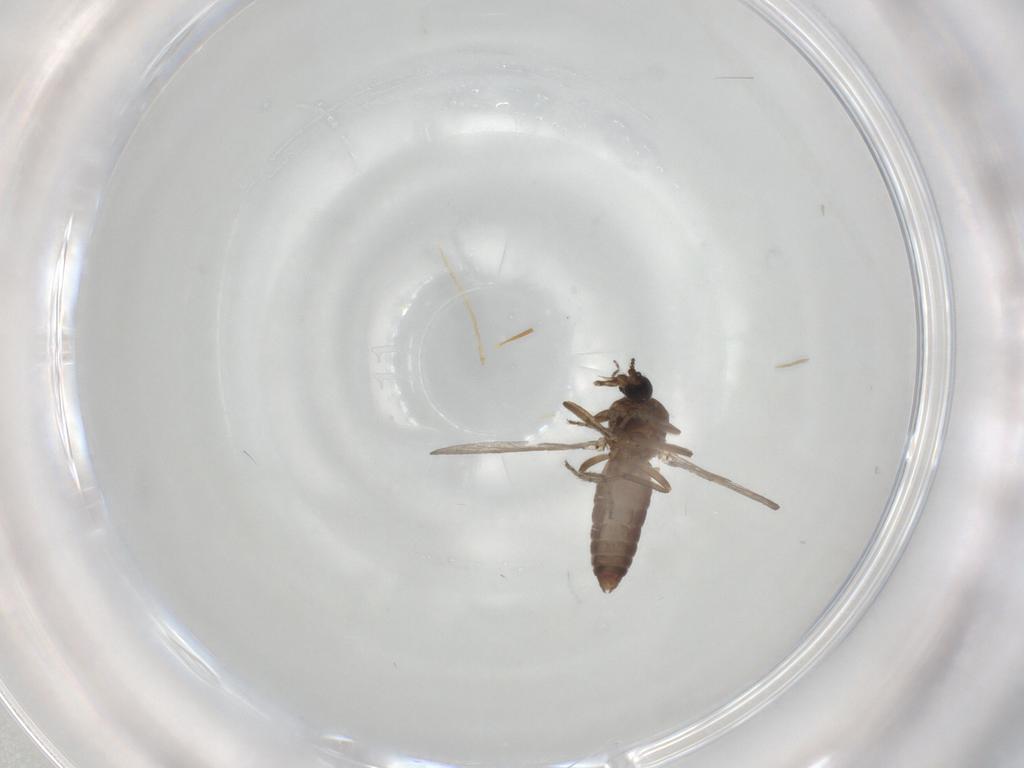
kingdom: Animalia
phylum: Arthropoda
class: Insecta
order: Diptera
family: Ceratopogonidae
